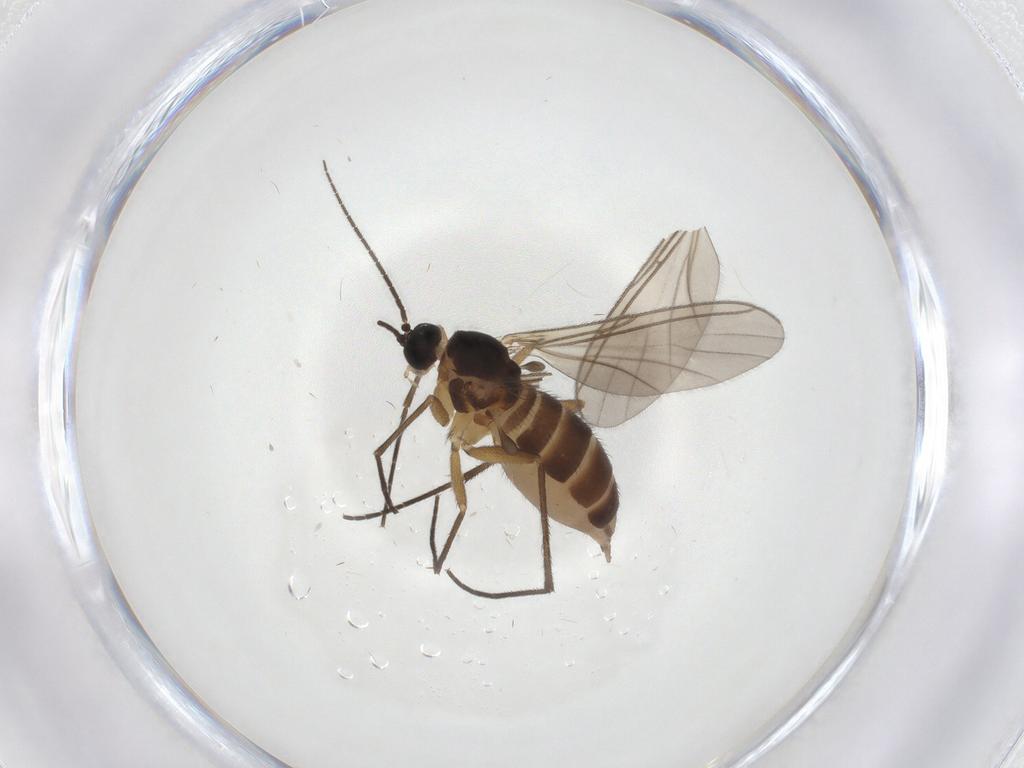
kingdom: Animalia
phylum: Arthropoda
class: Insecta
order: Diptera
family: Sciaridae
